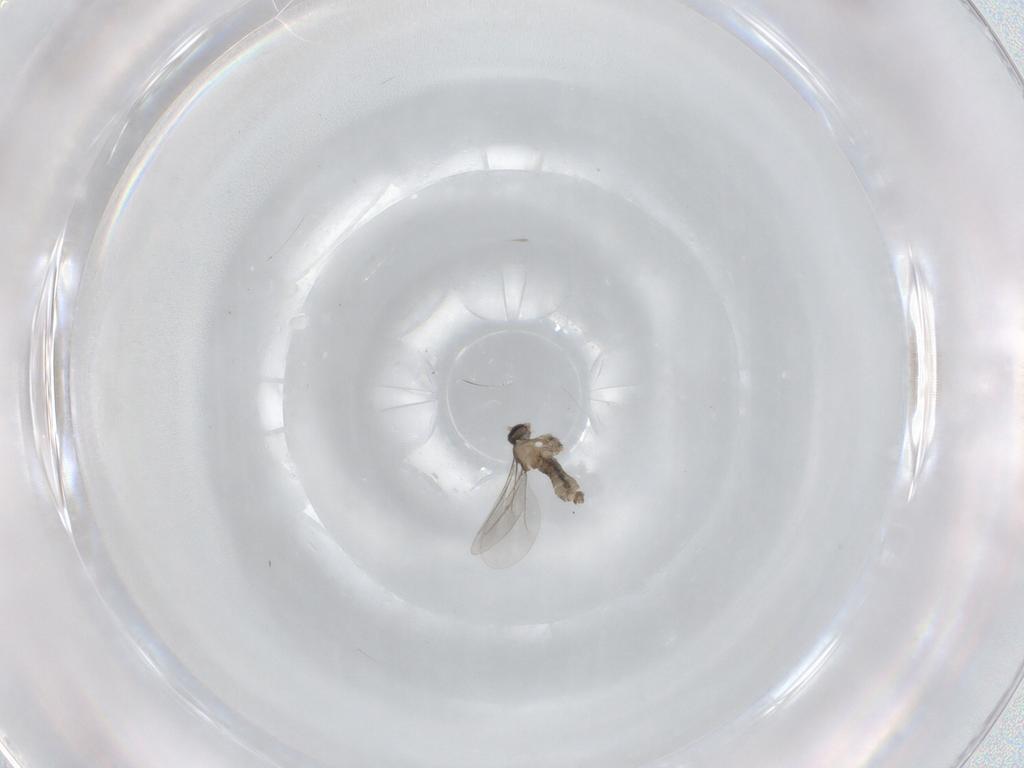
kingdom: Animalia
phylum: Arthropoda
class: Insecta
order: Diptera
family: Cecidomyiidae
